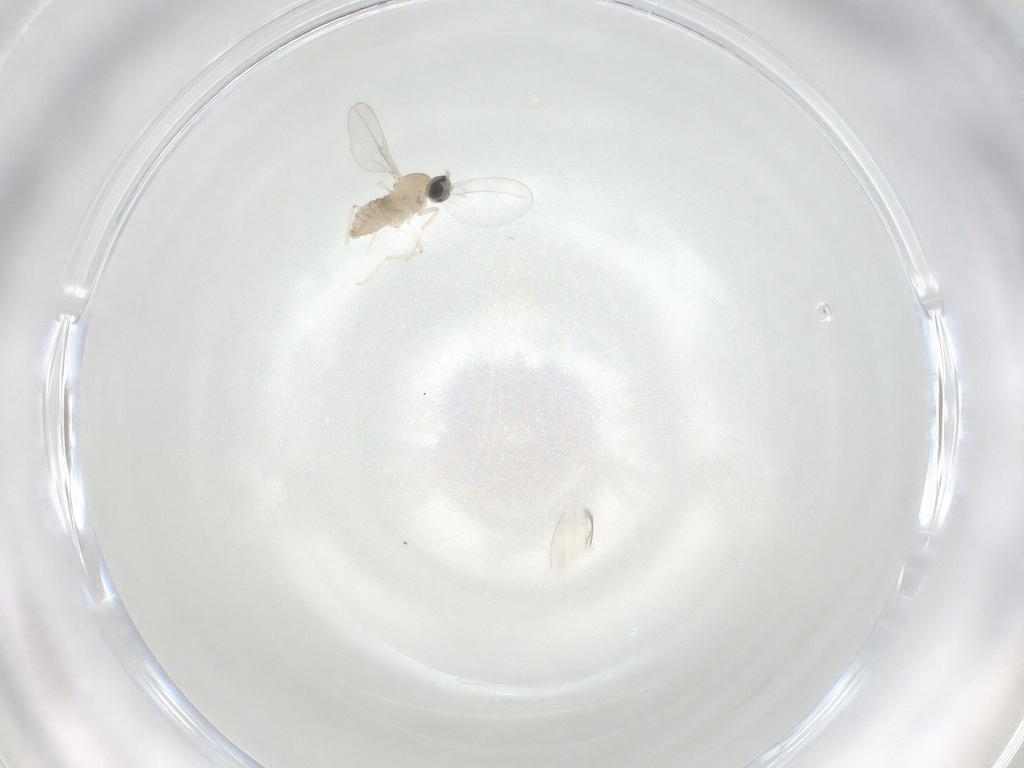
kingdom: Animalia
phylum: Arthropoda
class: Insecta
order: Diptera
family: Cecidomyiidae
